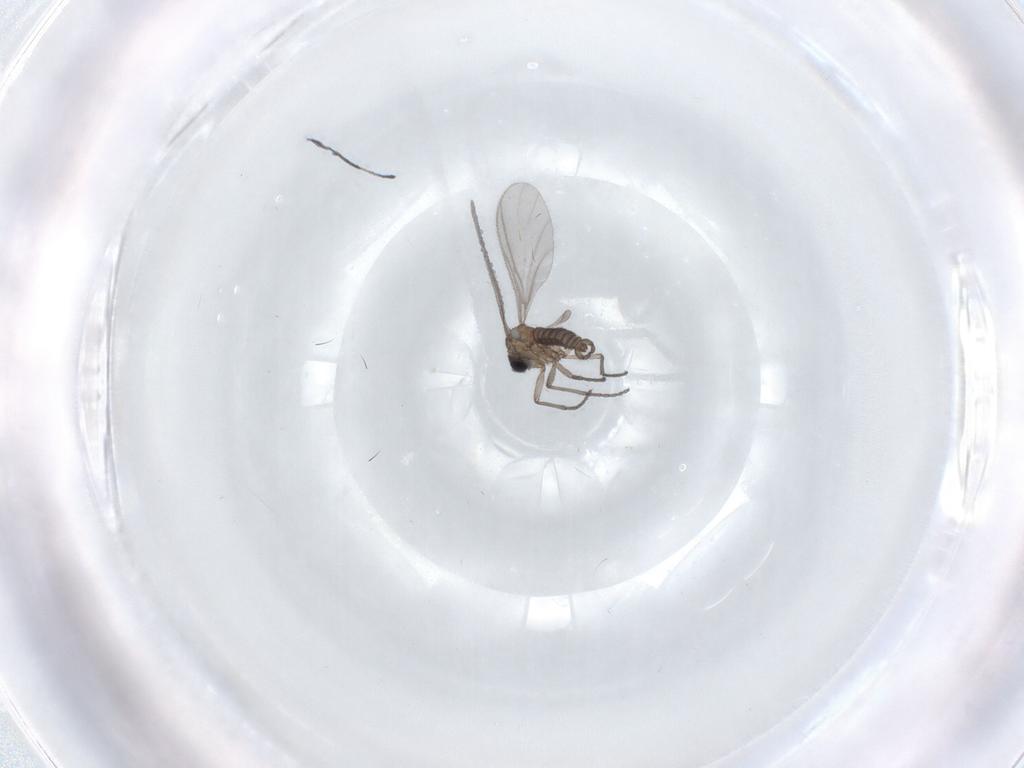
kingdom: Animalia
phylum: Arthropoda
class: Insecta
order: Diptera
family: Sciaridae
